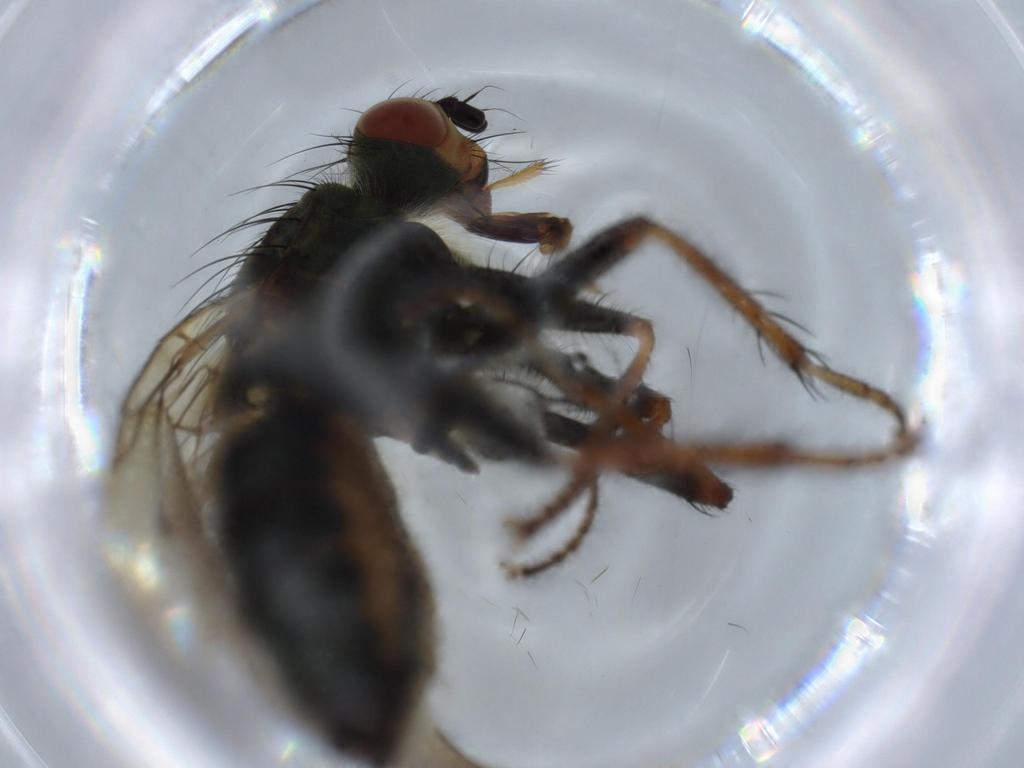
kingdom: Animalia
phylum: Arthropoda
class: Insecta
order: Diptera
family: Scathophagidae
